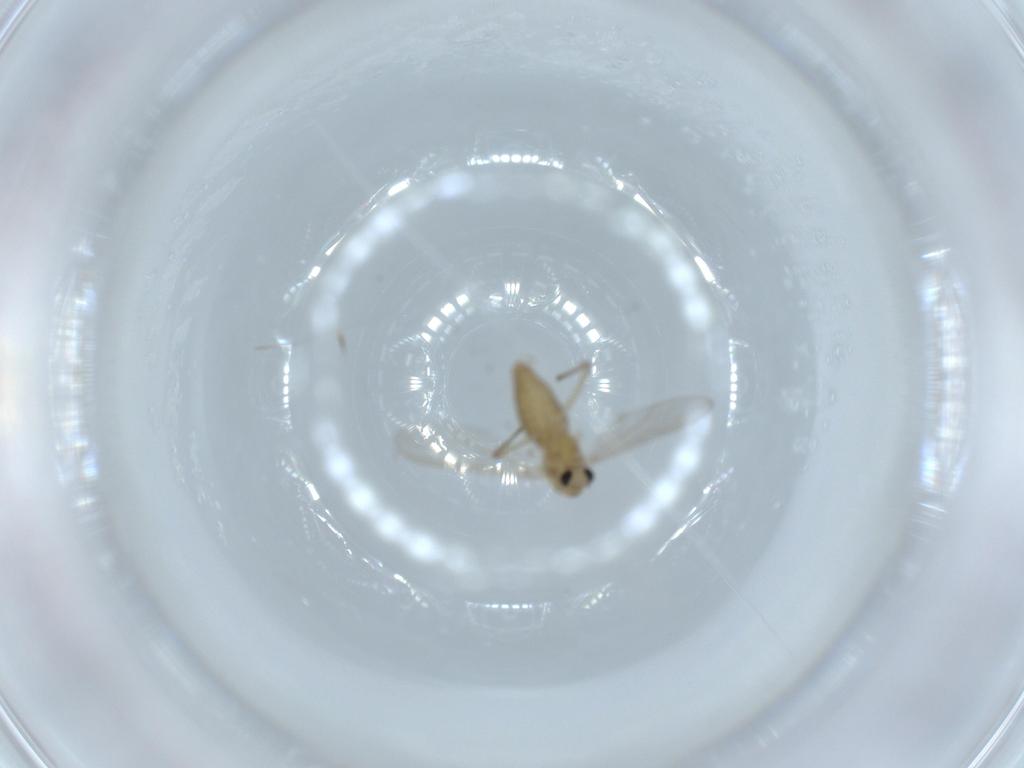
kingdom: Animalia
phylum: Arthropoda
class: Insecta
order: Diptera
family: Chironomidae
